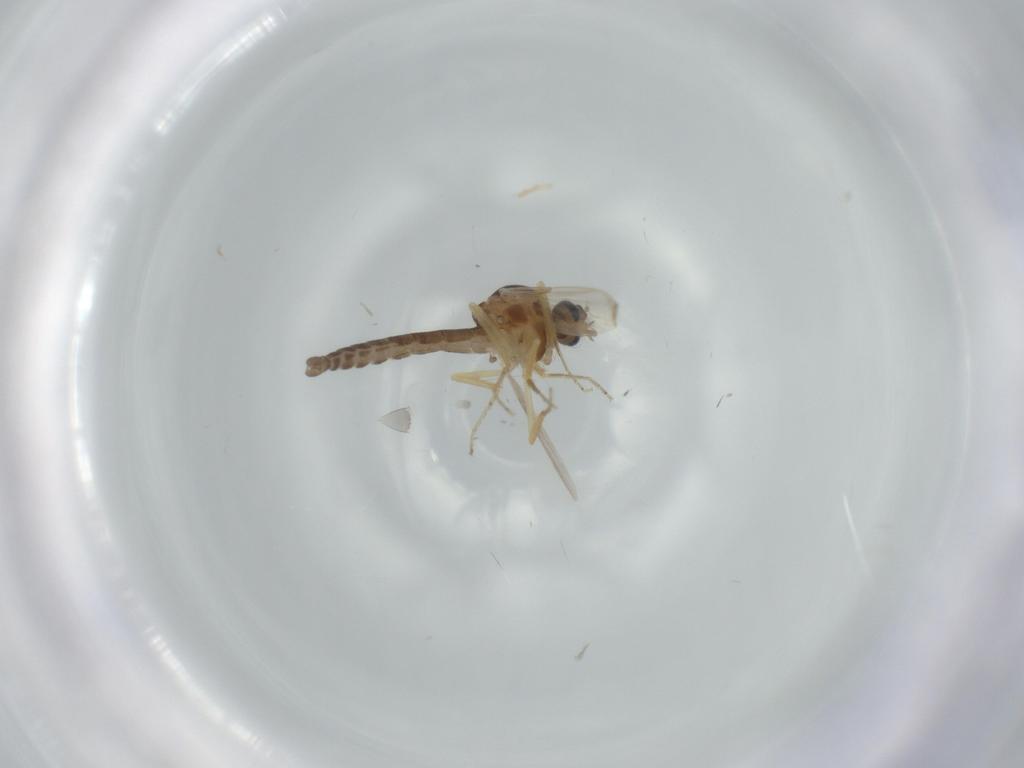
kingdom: Animalia
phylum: Arthropoda
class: Insecta
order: Diptera
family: Ceratopogonidae
